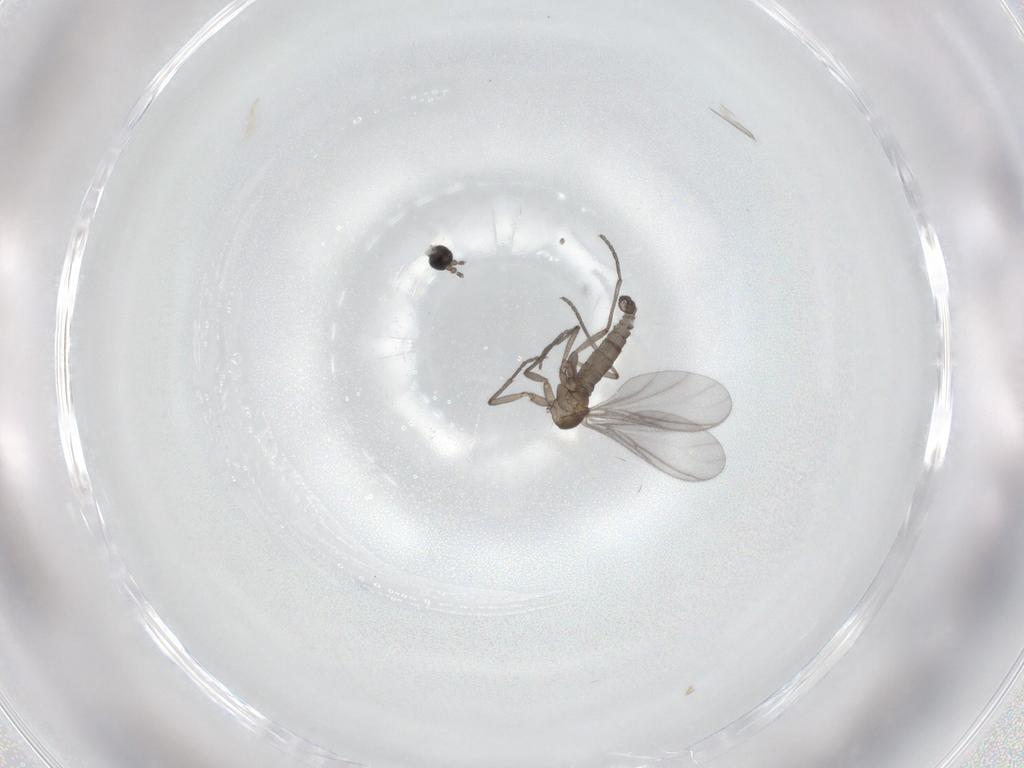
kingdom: Animalia
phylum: Arthropoda
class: Insecta
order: Diptera
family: Sciaridae
